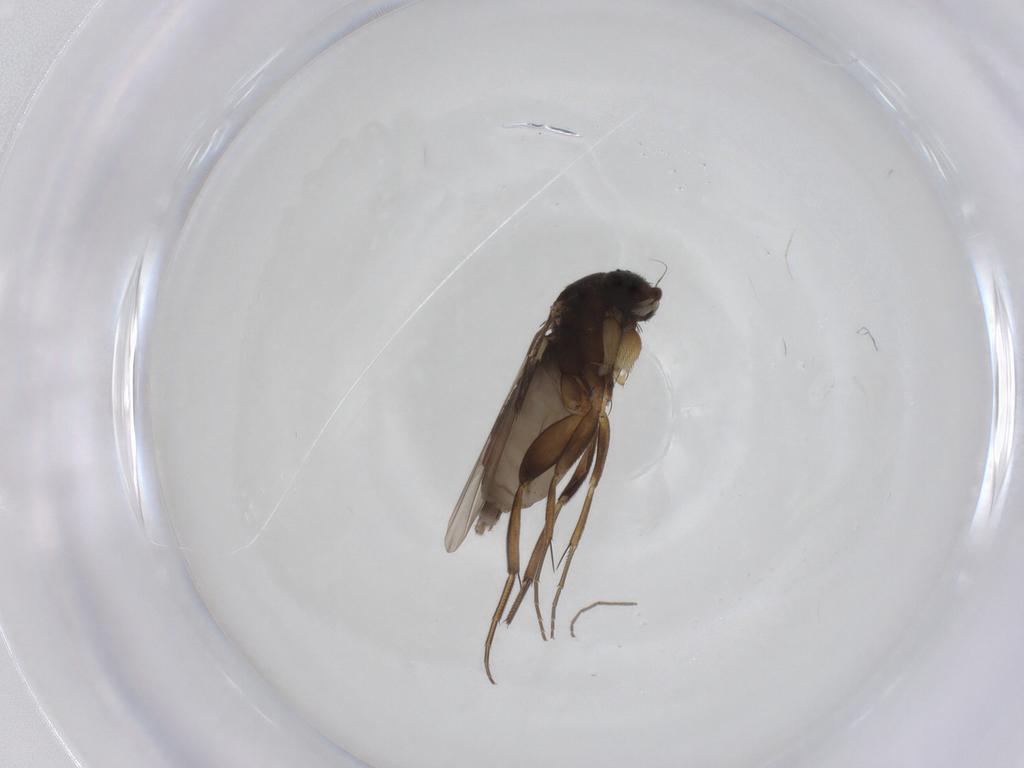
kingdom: Animalia
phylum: Arthropoda
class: Insecta
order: Diptera
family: Phoridae
